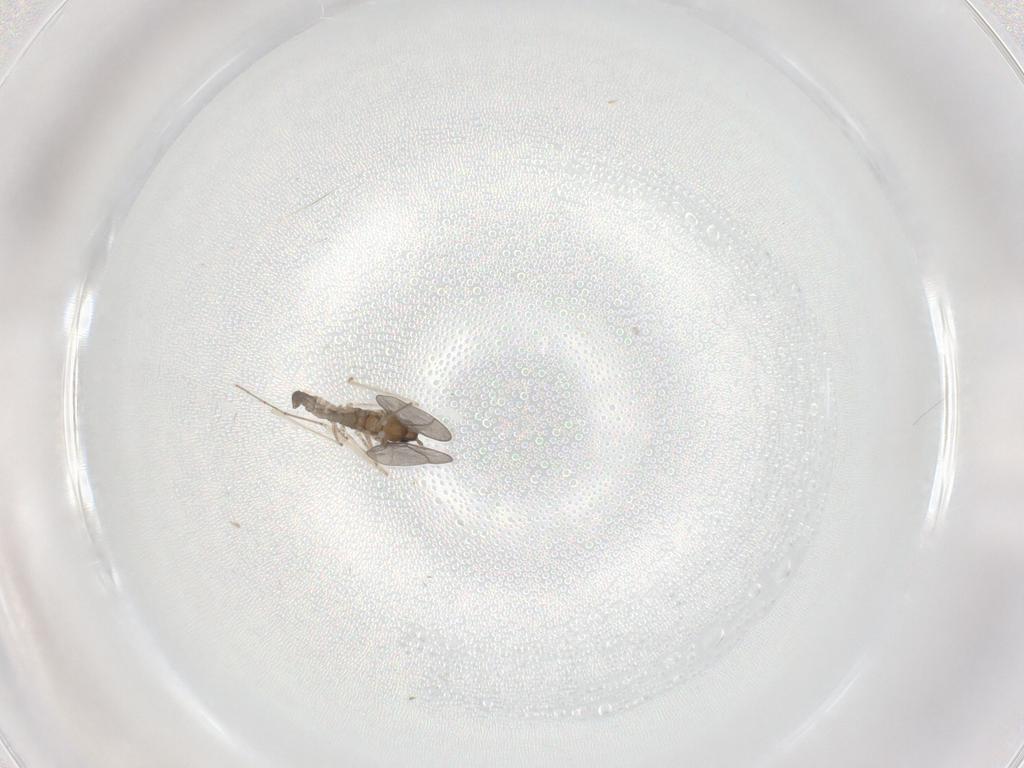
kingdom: Animalia
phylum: Arthropoda
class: Insecta
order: Diptera
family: Cecidomyiidae
